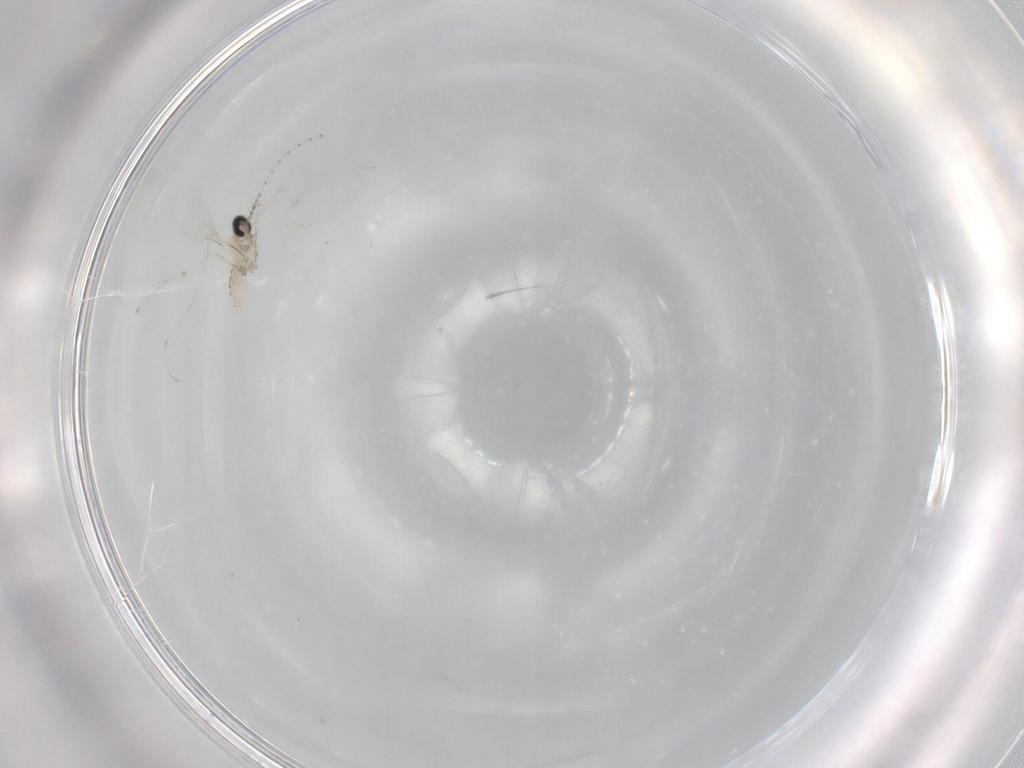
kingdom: Animalia
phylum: Arthropoda
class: Insecta
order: Diptera
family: Cecidomyiidae
